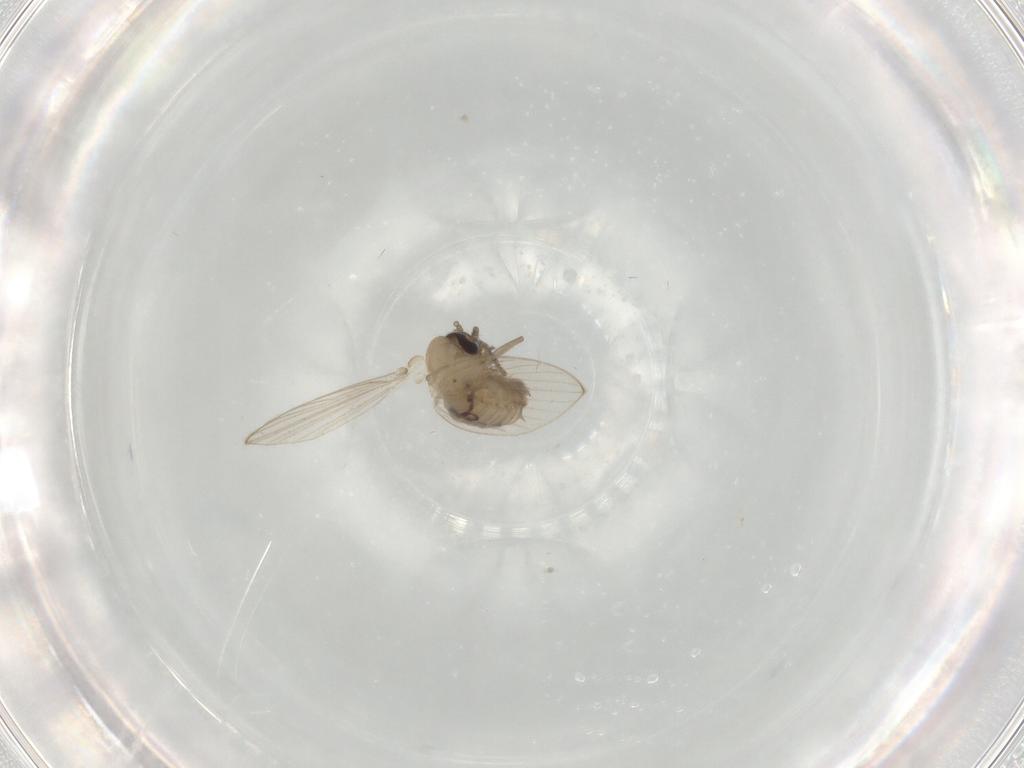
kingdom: Animalia
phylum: Arthropoda
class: Insecta
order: Diptera
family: Psychodidae
